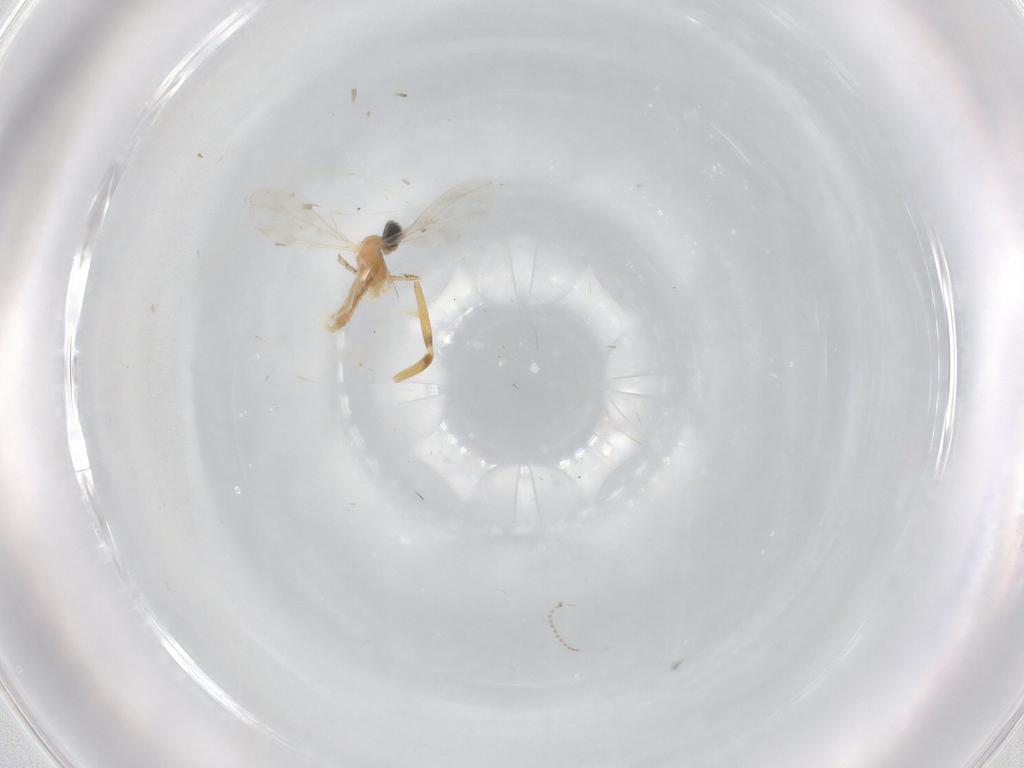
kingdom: Animalia
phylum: Arthropoda
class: Insecta
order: Diptera
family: Cecidomyiidae
